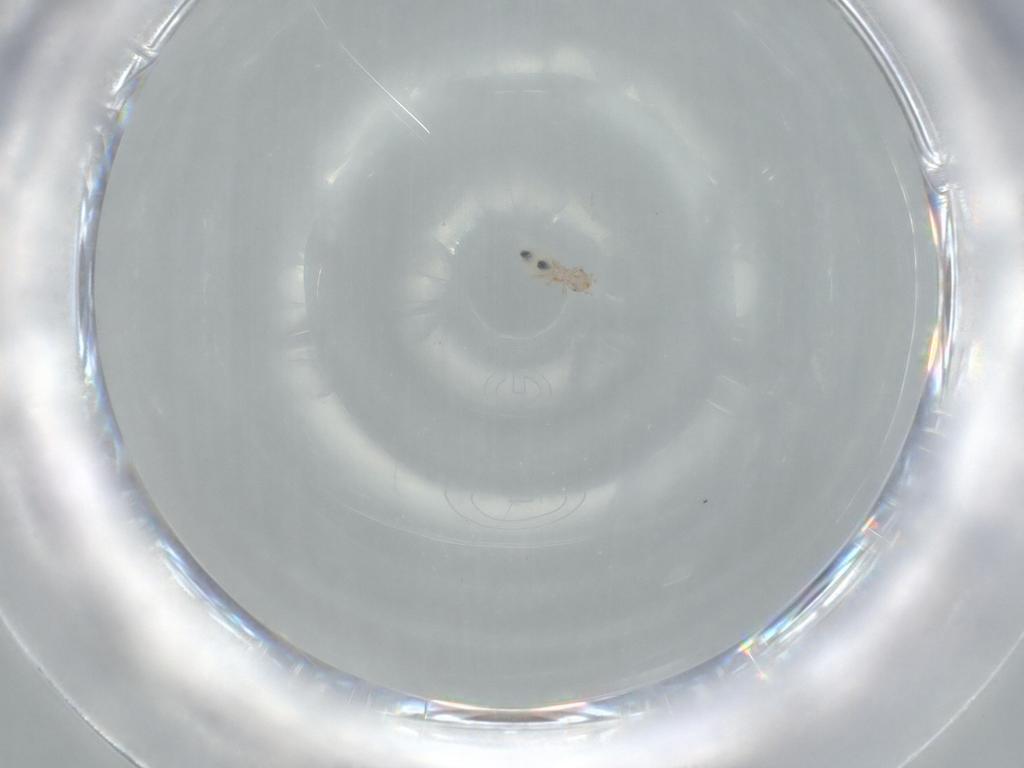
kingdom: Animalia
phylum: Arthropoda
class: Insecta
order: Psocodea
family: Liposcelididae
